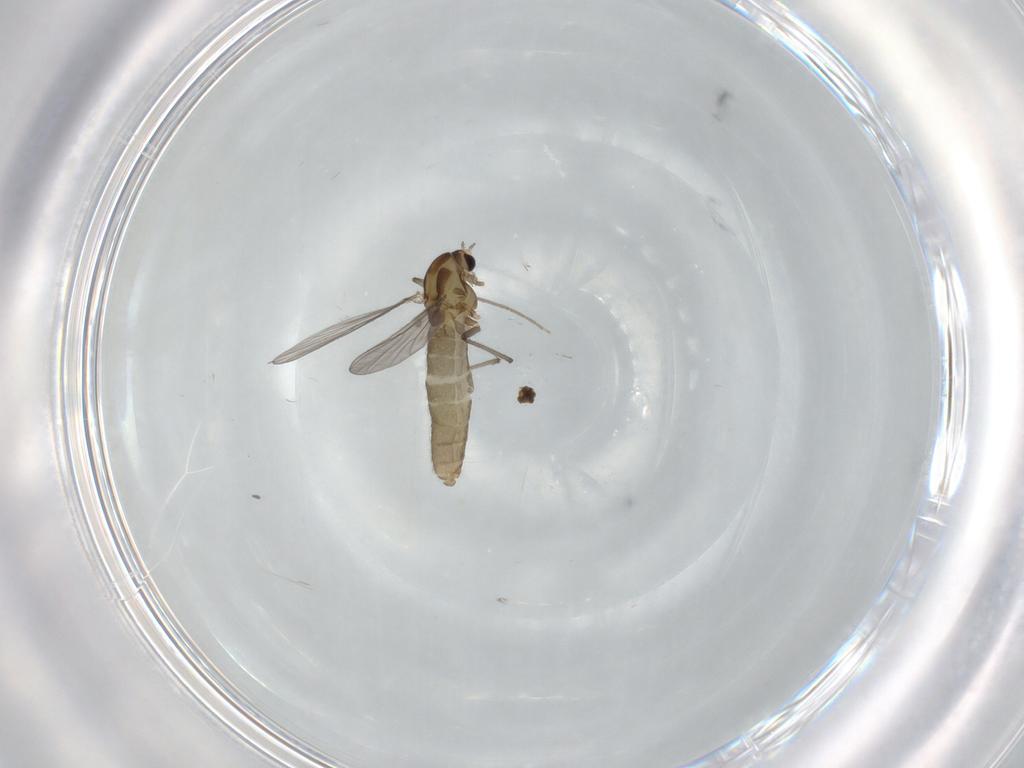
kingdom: Animalia
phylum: Arthropoda
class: Insecta
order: Diptera
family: Chironomidae
